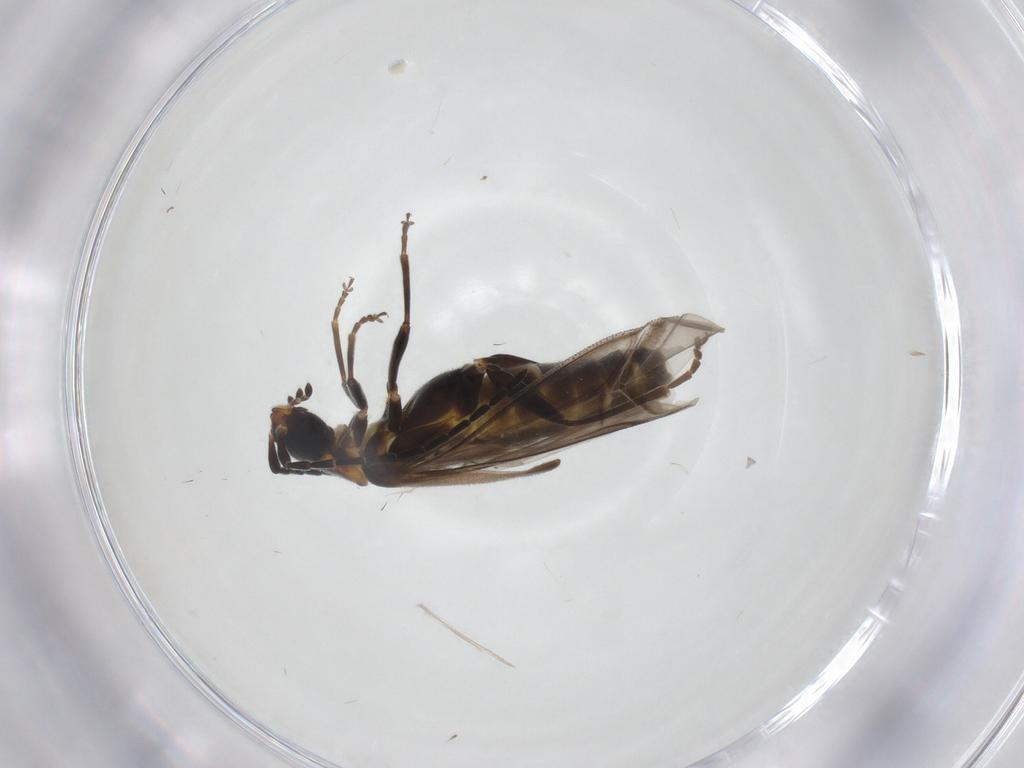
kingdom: Animalia
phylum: Arthropoda
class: Insecta
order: Coleoptera
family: Cantharidae
